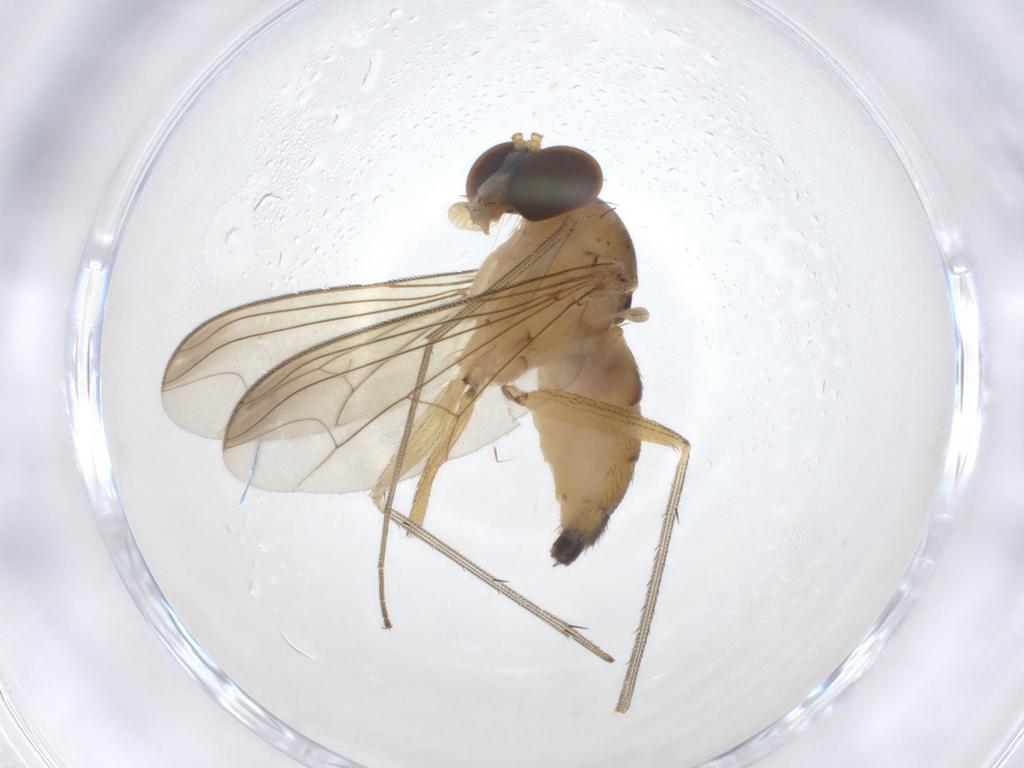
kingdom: Animalia
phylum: Arthropoda
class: Insecta
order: Diptera
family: Dolichopodidae
